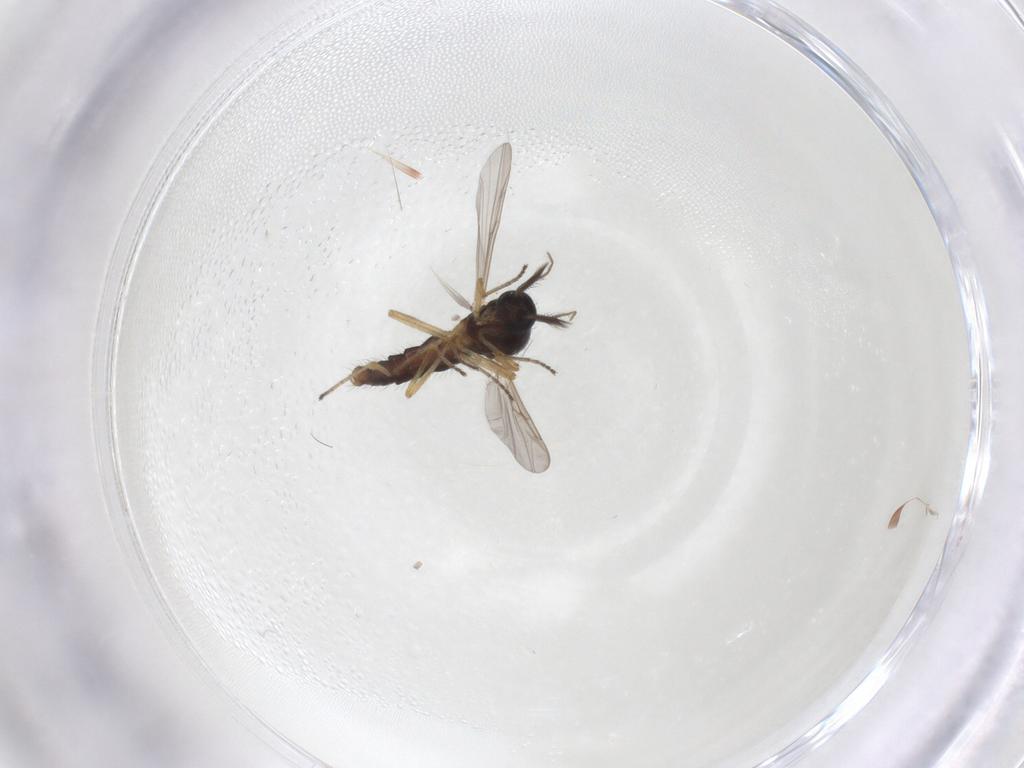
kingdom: Animalia
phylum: Arthropoda
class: Insecta
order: Diptera
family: Ceratopogonidae
